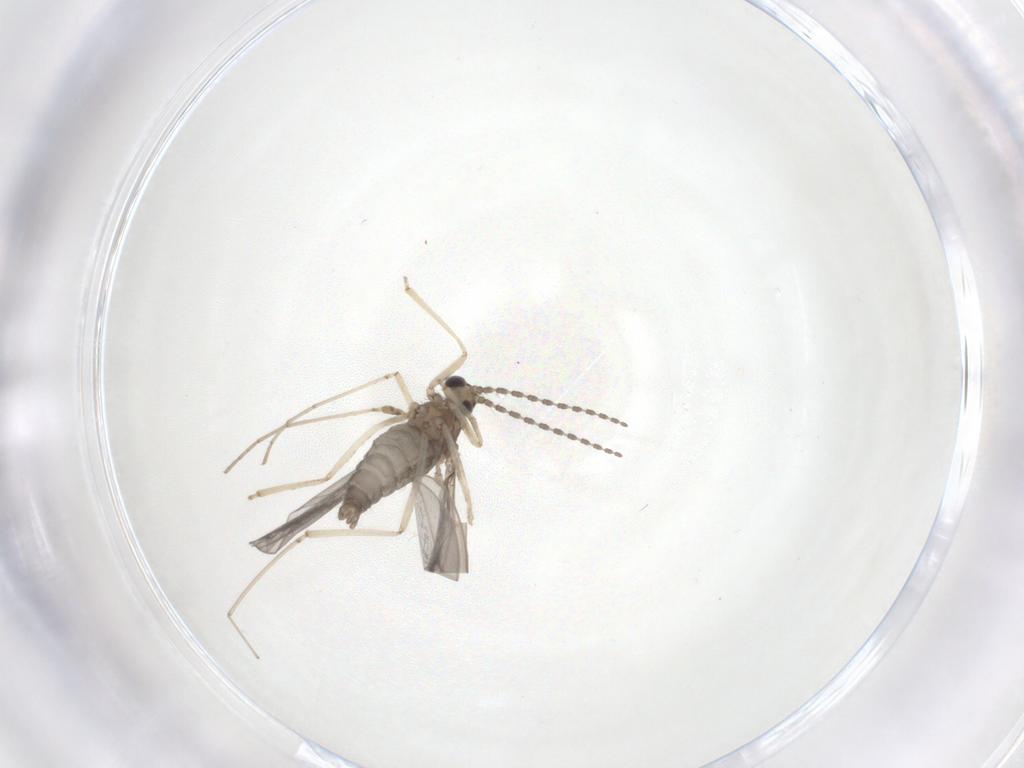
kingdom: Animalia
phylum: Arthropoda
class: Insecta
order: Diptera
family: Cecidomyiidae
